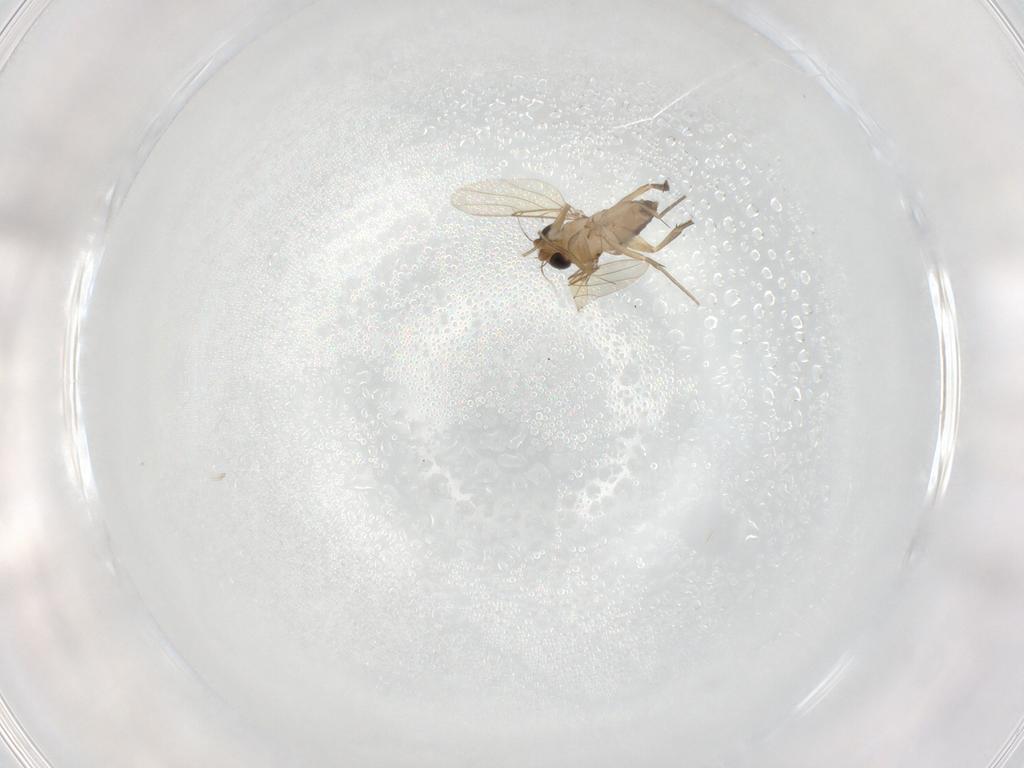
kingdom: Animalia
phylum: Arthropoda
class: Insecta
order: Diptera
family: Phoridae
